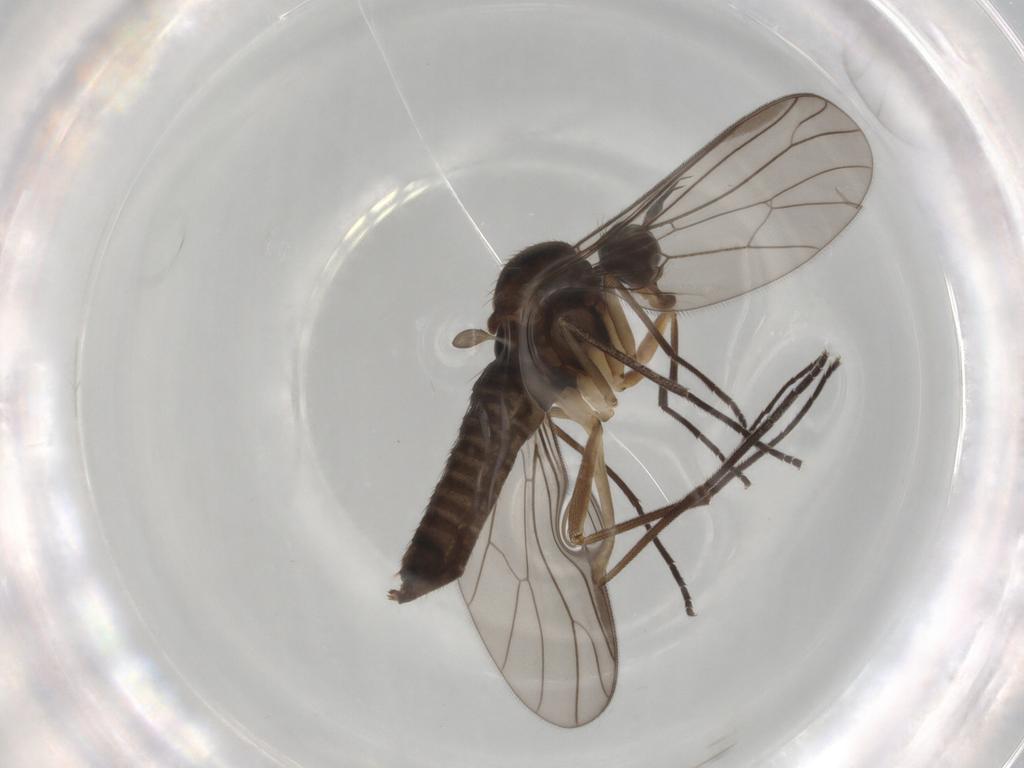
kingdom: Animalia
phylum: Arthropoda
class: Insecta
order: Diptera
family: Empididae
